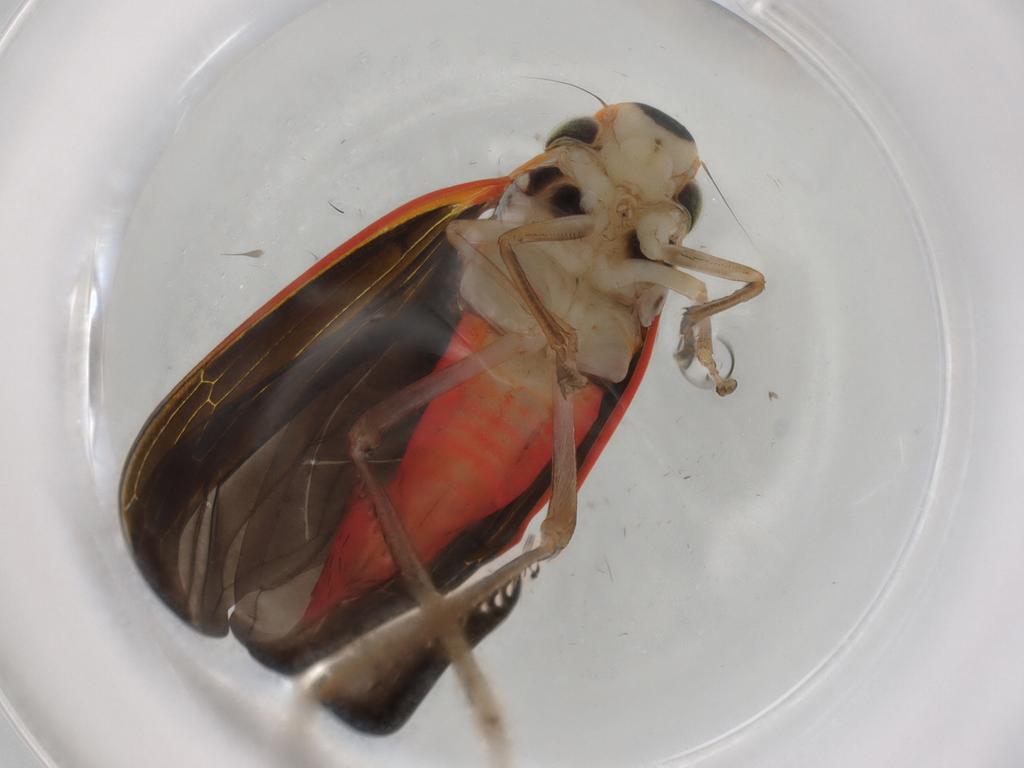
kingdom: Animalia
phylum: Arthropoda
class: Insecta
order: Hemiptera
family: Cicadellidae
